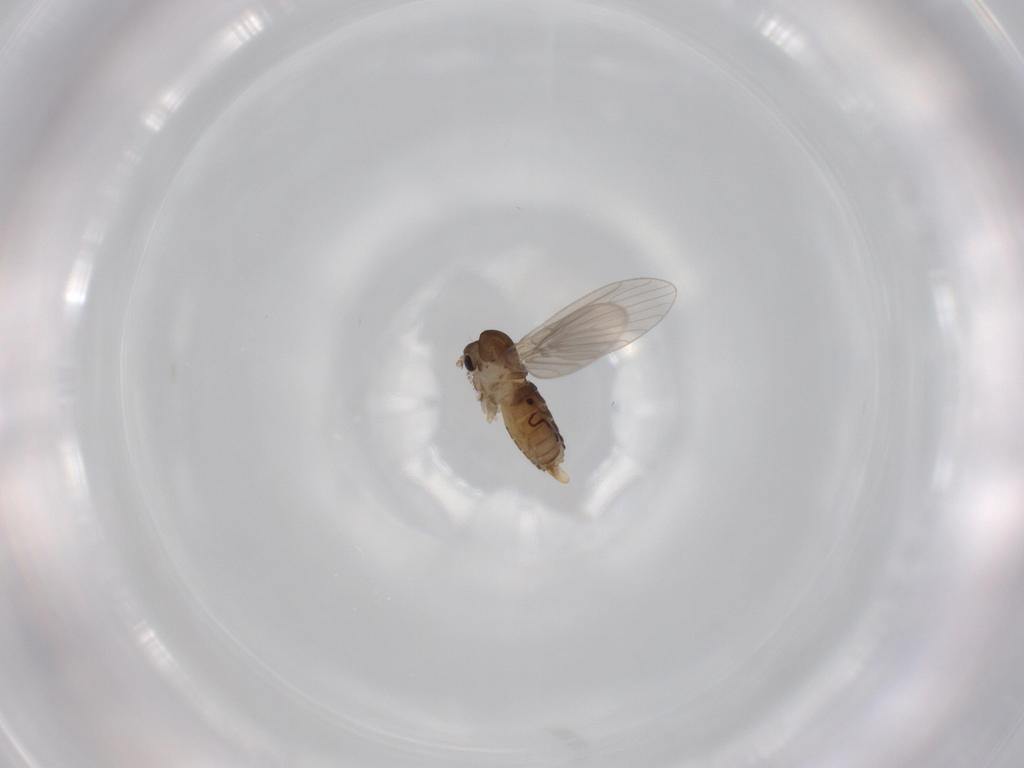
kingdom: Animalia
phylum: Arthropoda
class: Insecta
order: Diptera
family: Psychodidae
